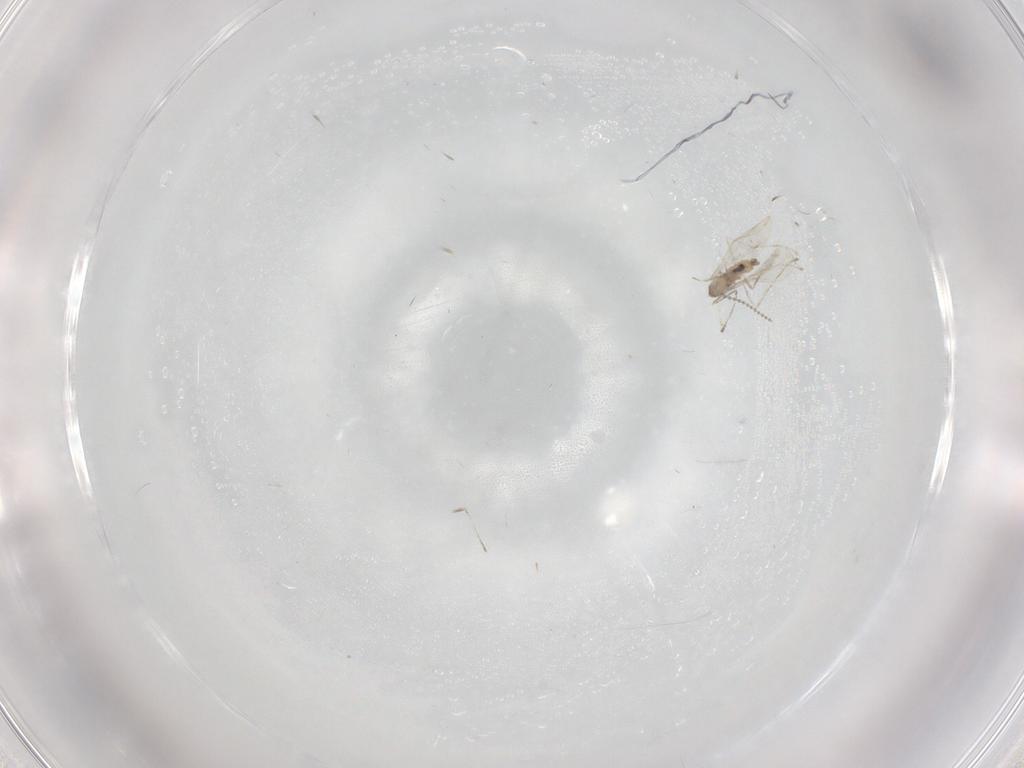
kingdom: Animalia
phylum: Arthropoda
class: Insecta
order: Diptera
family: Cecidomyiidae
